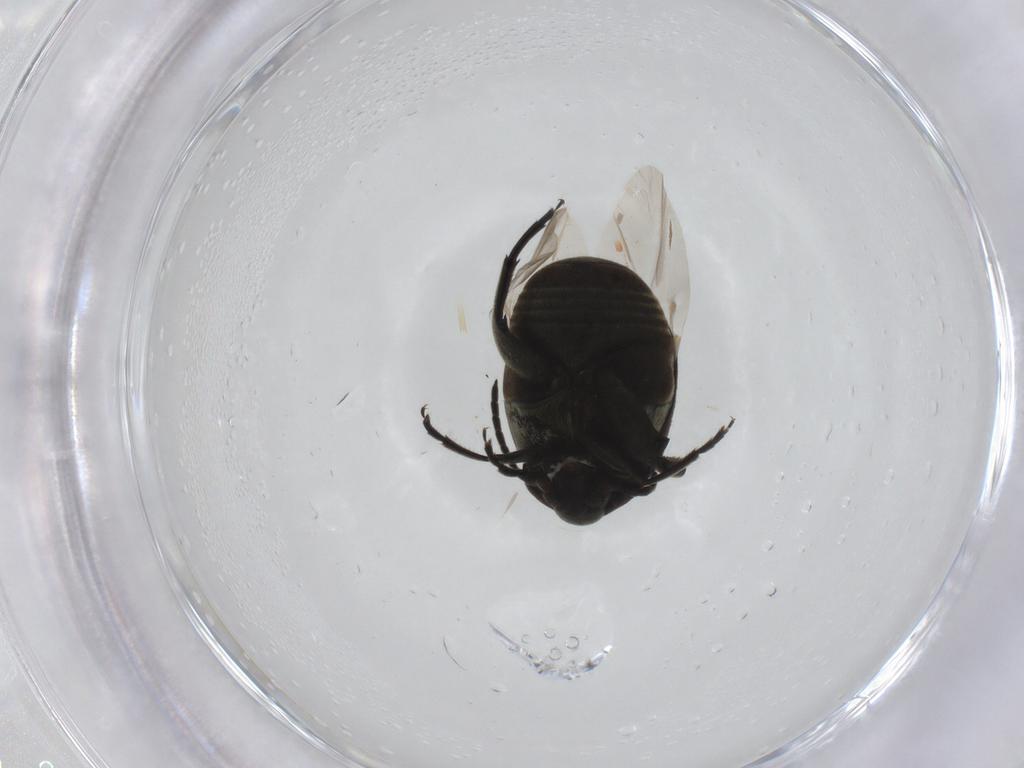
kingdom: Animalia
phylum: Arthropoda
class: Insecta
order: Coleoptera
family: Chrysomelidae
